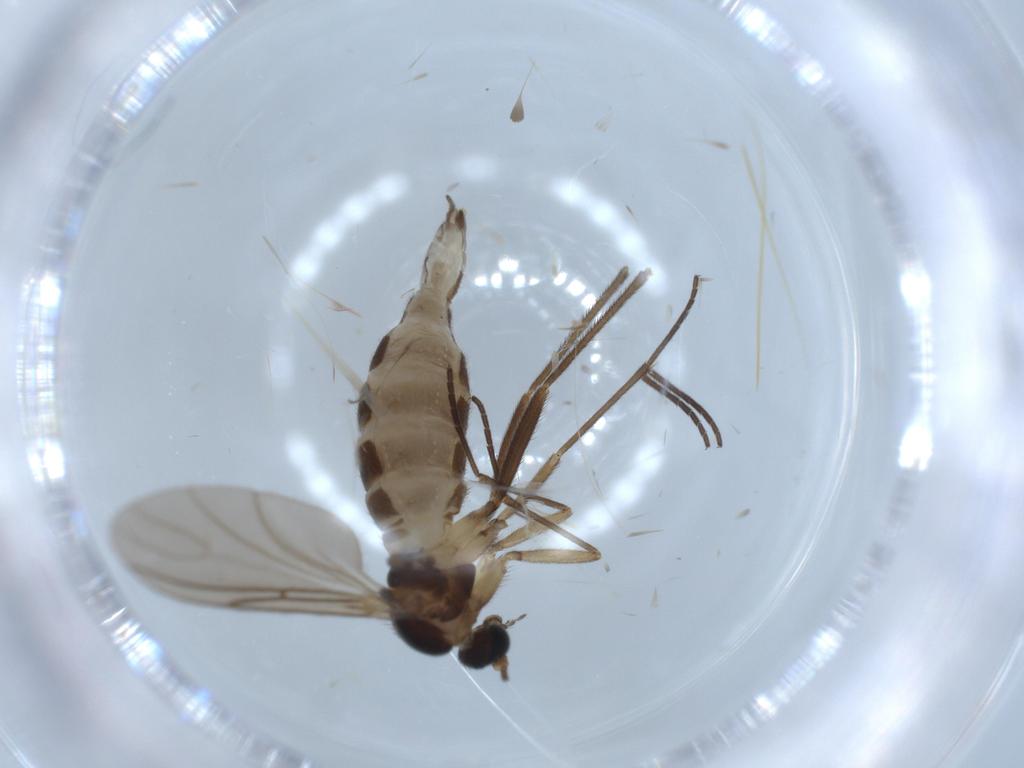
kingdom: Animalia
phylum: Arthropoda
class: Insecta
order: Diptera
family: Sciaridae
